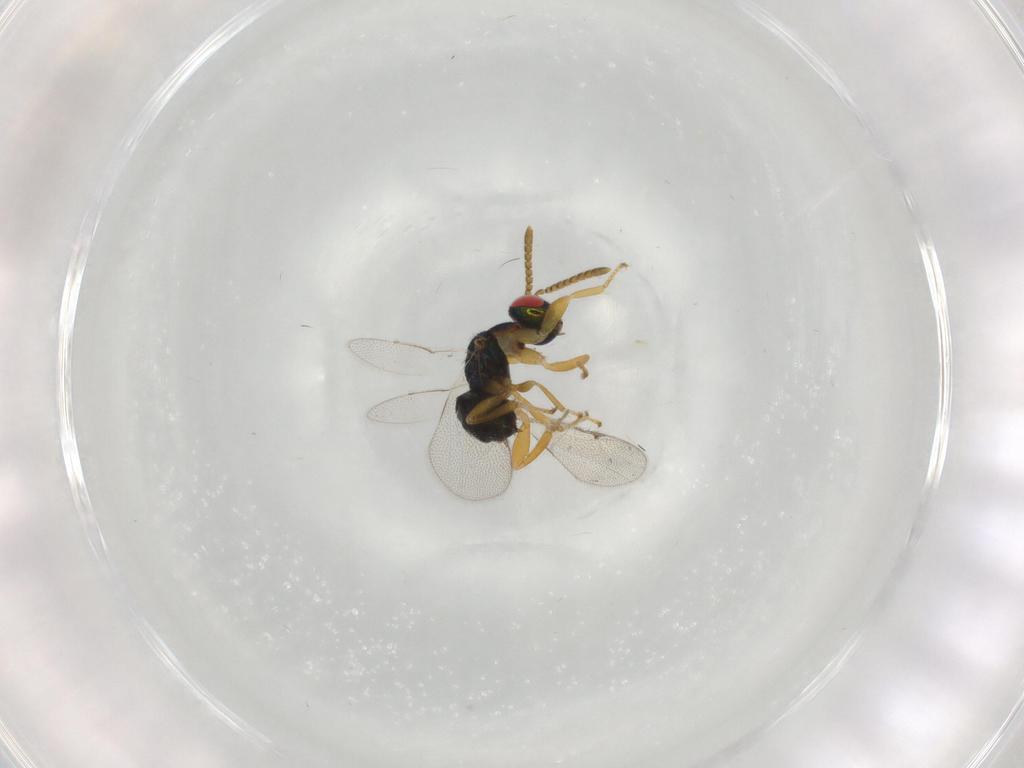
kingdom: Animalia
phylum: Arthropoda
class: Insecta
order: Hymenoptera
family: Torymidae
